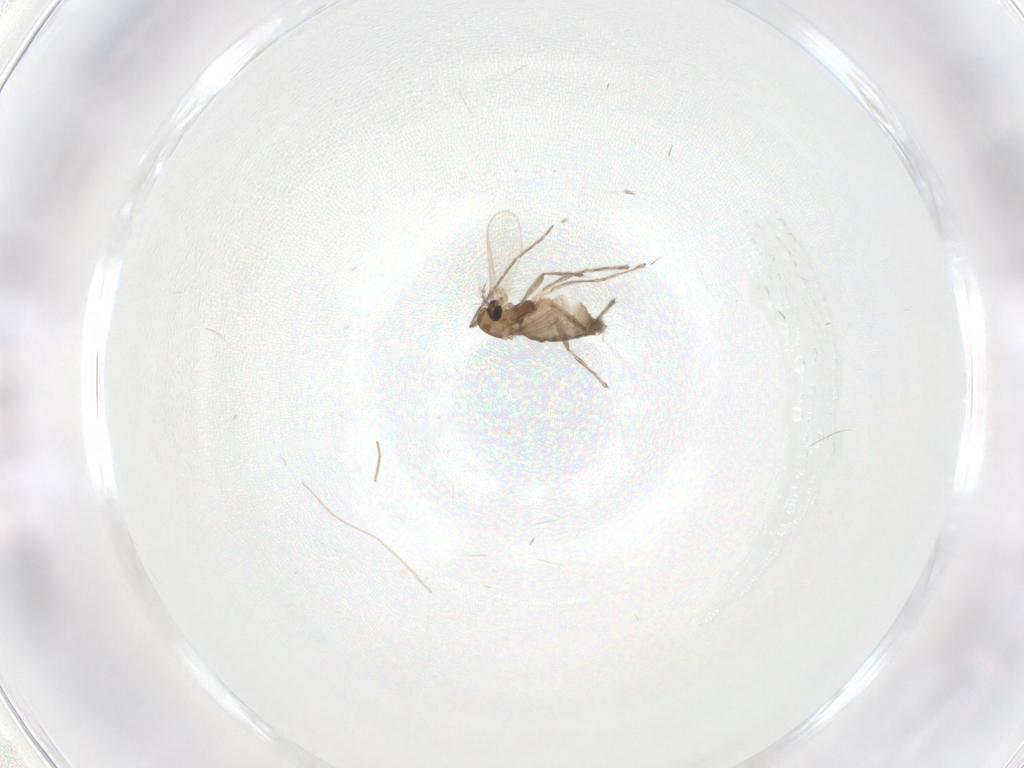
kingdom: Animalia
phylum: Arthropoda
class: Insecta
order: Diptera
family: Chironomidae
